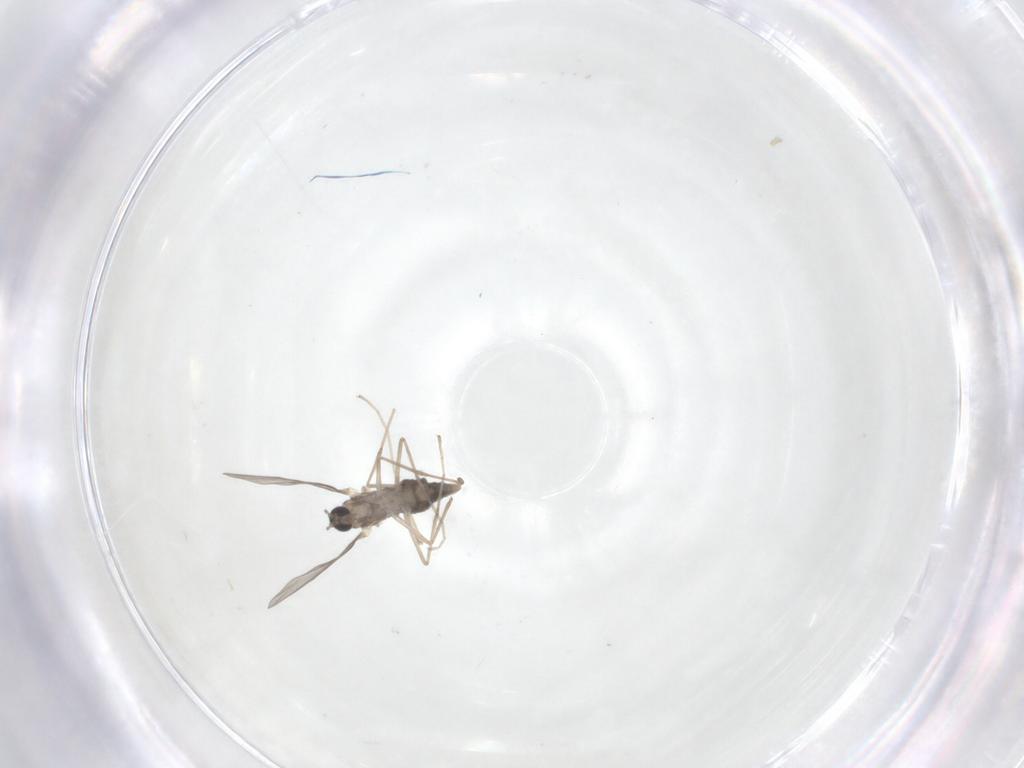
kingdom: Animalia
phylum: Arthropoda
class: Insecta
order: Diptera
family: Cecidomyiidae
